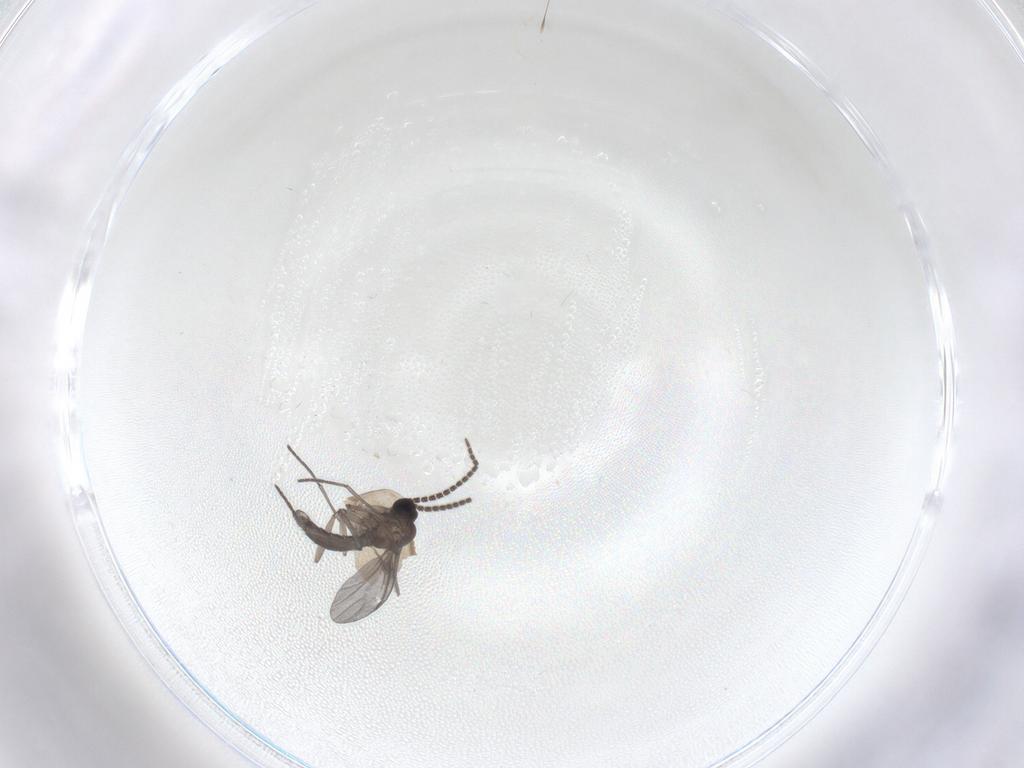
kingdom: Animalia
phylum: Arthropoda
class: Insecta
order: Diptera
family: Sciaridae
